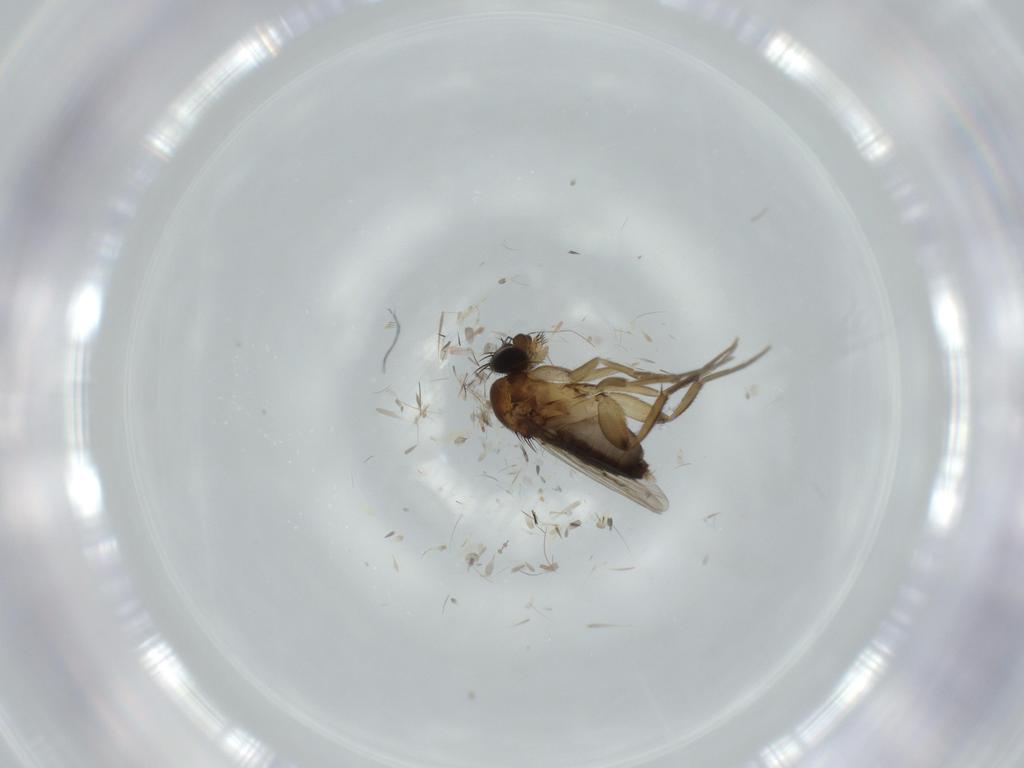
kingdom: Animalia
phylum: Arthropoda
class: Insecta
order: Diptera
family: Phoridae
